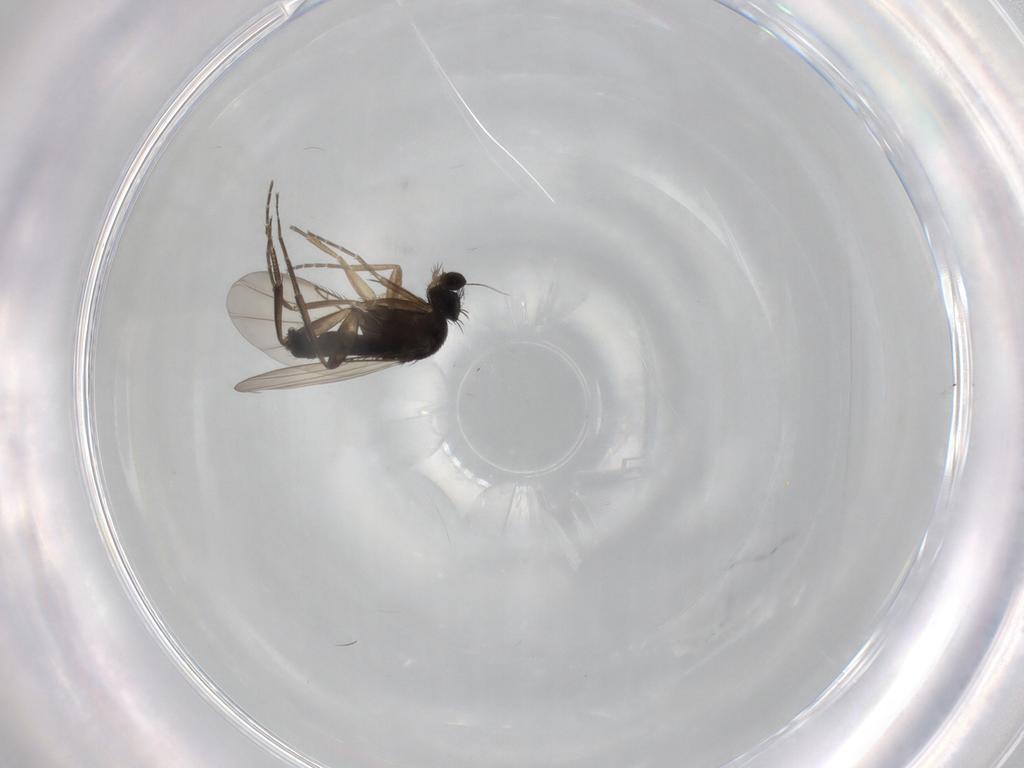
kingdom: Animalia
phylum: Arthropoda
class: Insecta
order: Diptera
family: Phoridae
